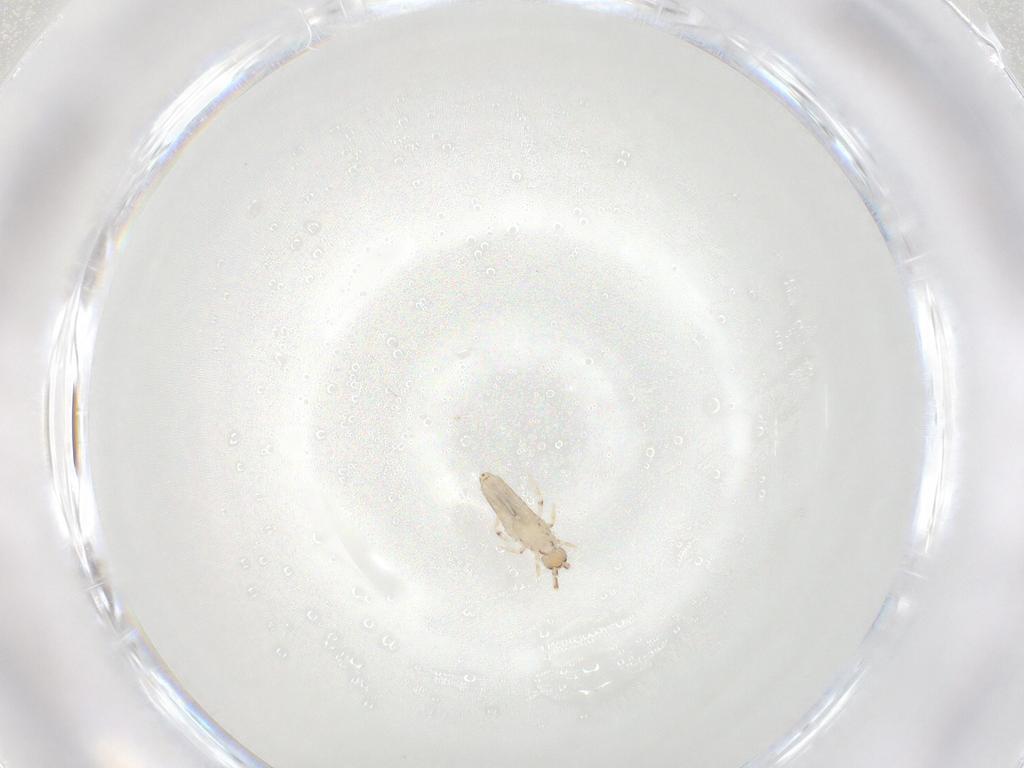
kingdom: Animalia
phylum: Arthropoda
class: Collembola
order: Entomobryomorpha
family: Entomobryidae
